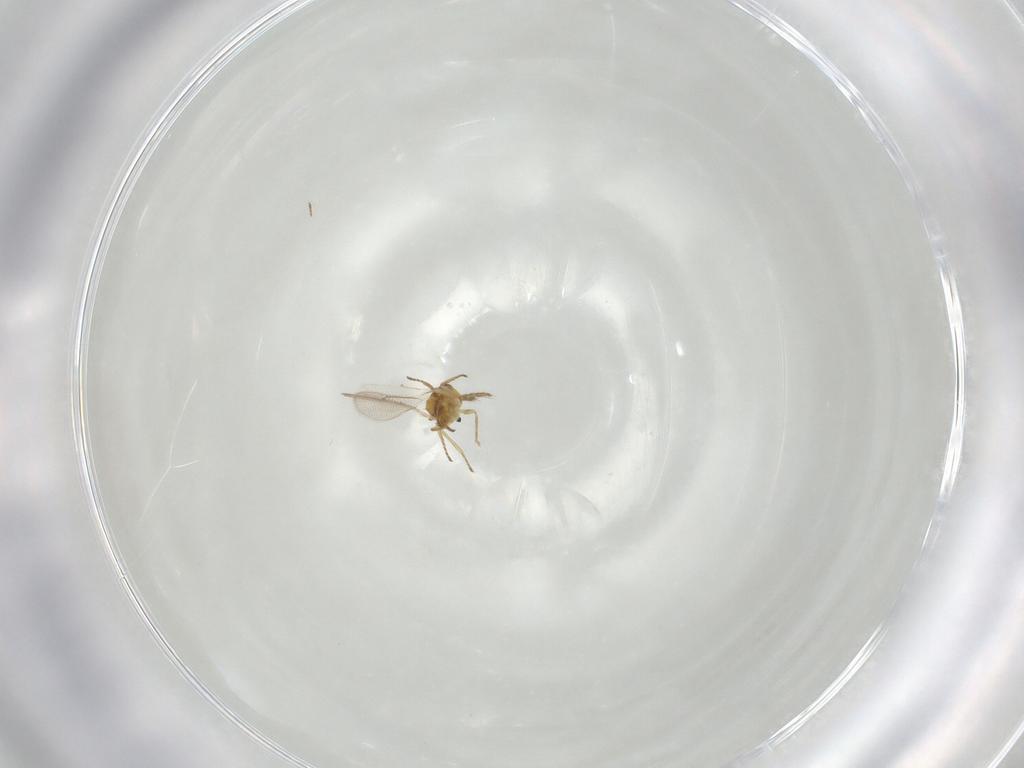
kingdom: Animalia
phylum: Arthropoda
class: Insecta
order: Hymenoptera
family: Eulophidae
